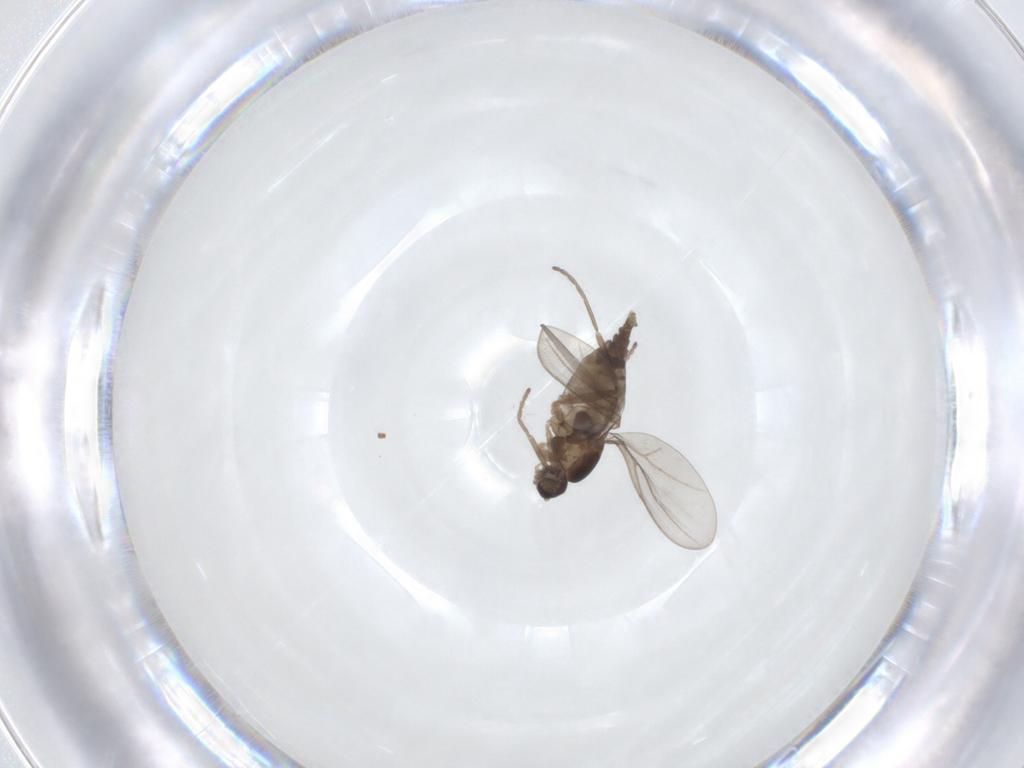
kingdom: Animalia
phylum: Arthropoda
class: Insecta
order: Diptera
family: Cecidomyiidae
